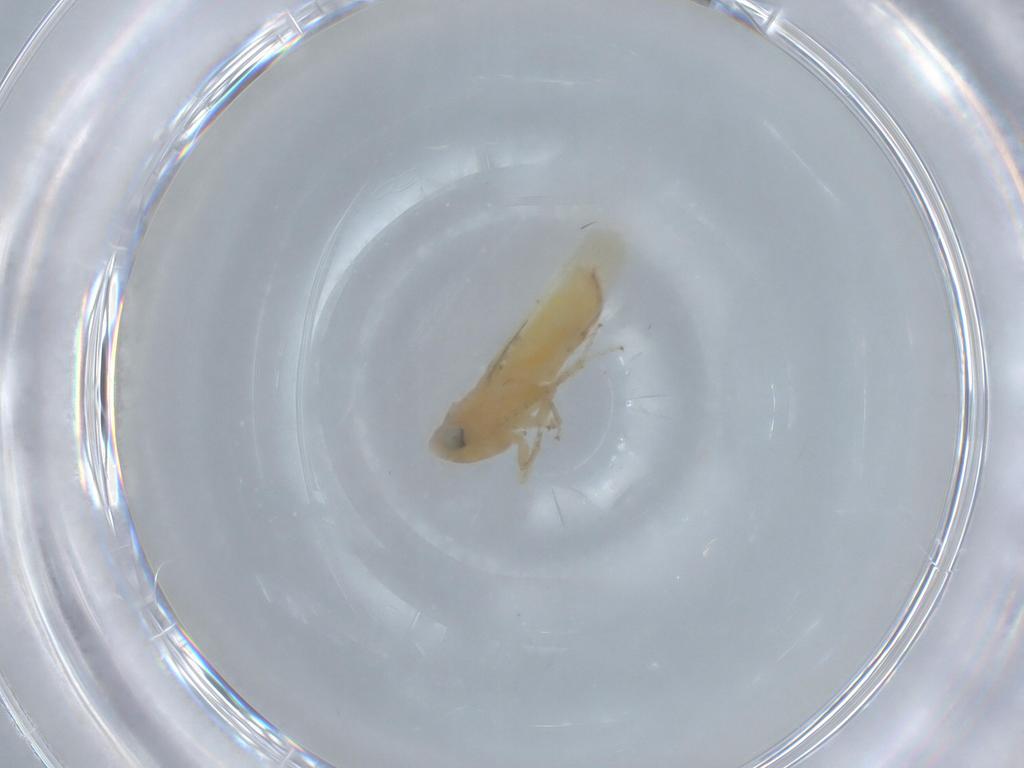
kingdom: Animalia
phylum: Arthropoda
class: Insecta
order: Hemiptera
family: Cicadellidae
